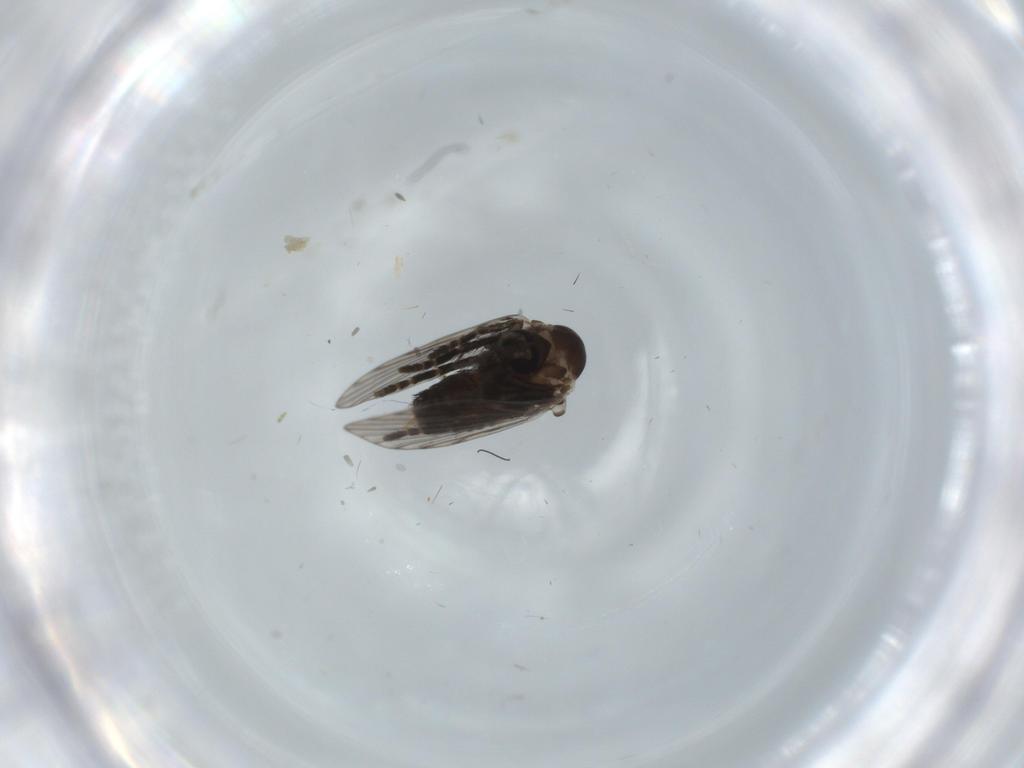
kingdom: Animalia
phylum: Arthropoda
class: Insecta
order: Diptera
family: Psychodidae
